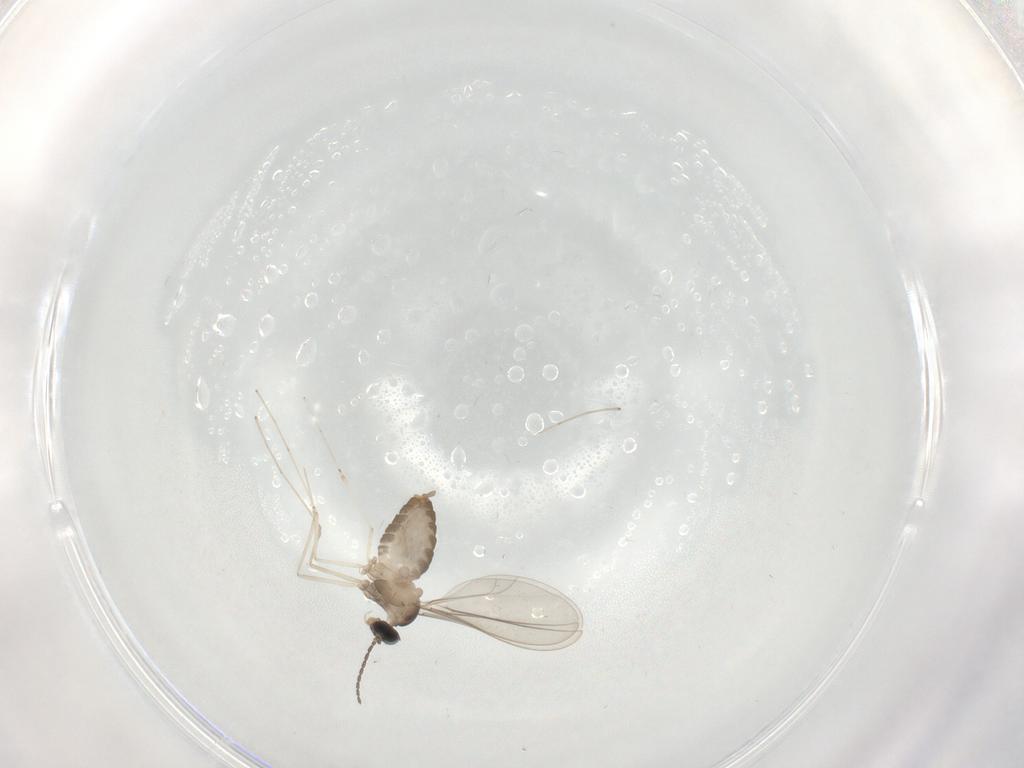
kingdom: Animalia
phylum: Arthropoda
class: Insecta
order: Diptera
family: Cecidomyiidae
